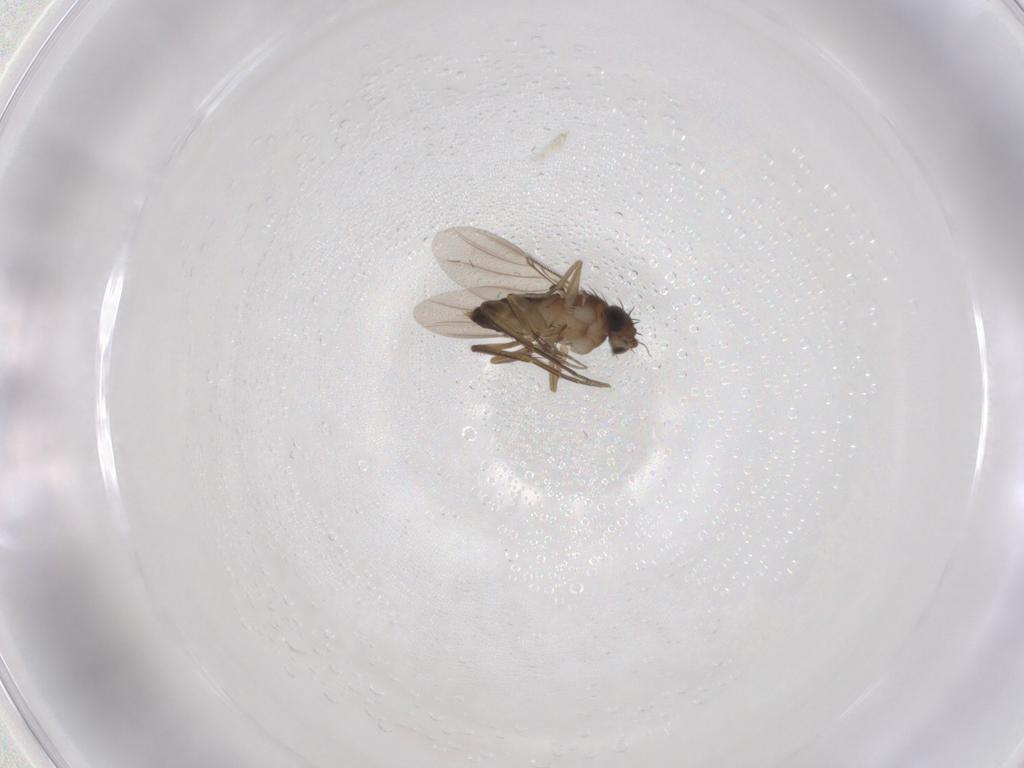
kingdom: Animalia
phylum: Arthropoda
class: Insecta
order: Diptera
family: Phoridae
